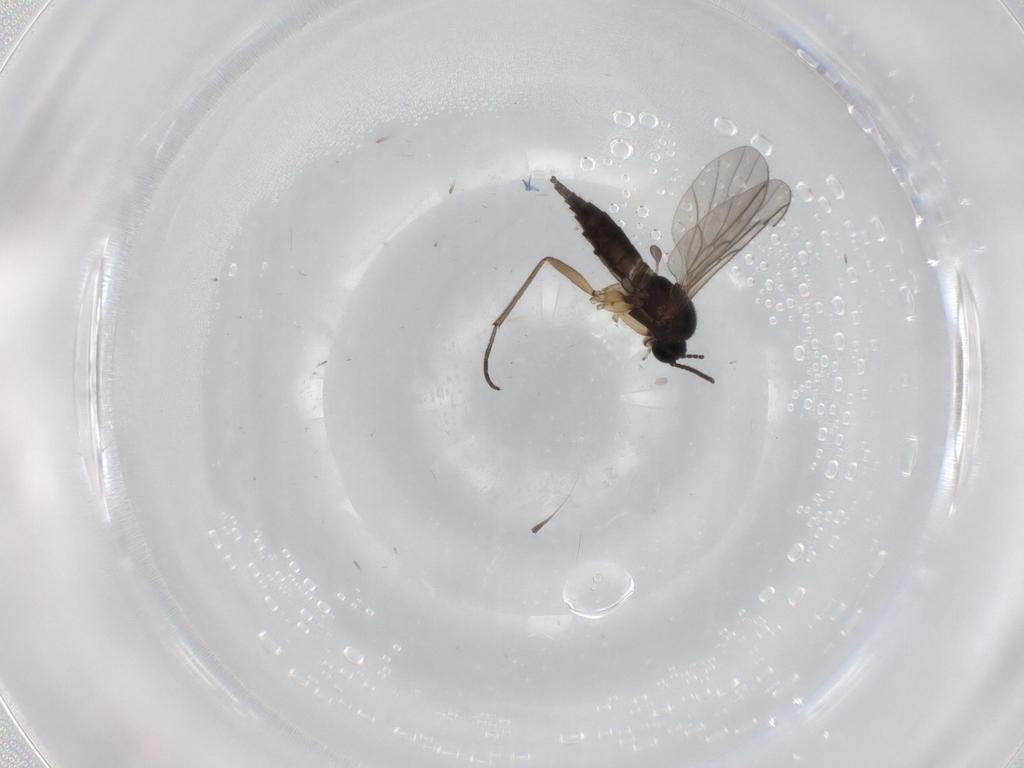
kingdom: Animalia
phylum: Arthropoda
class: Insecta
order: Diptera
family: Sciaridae
